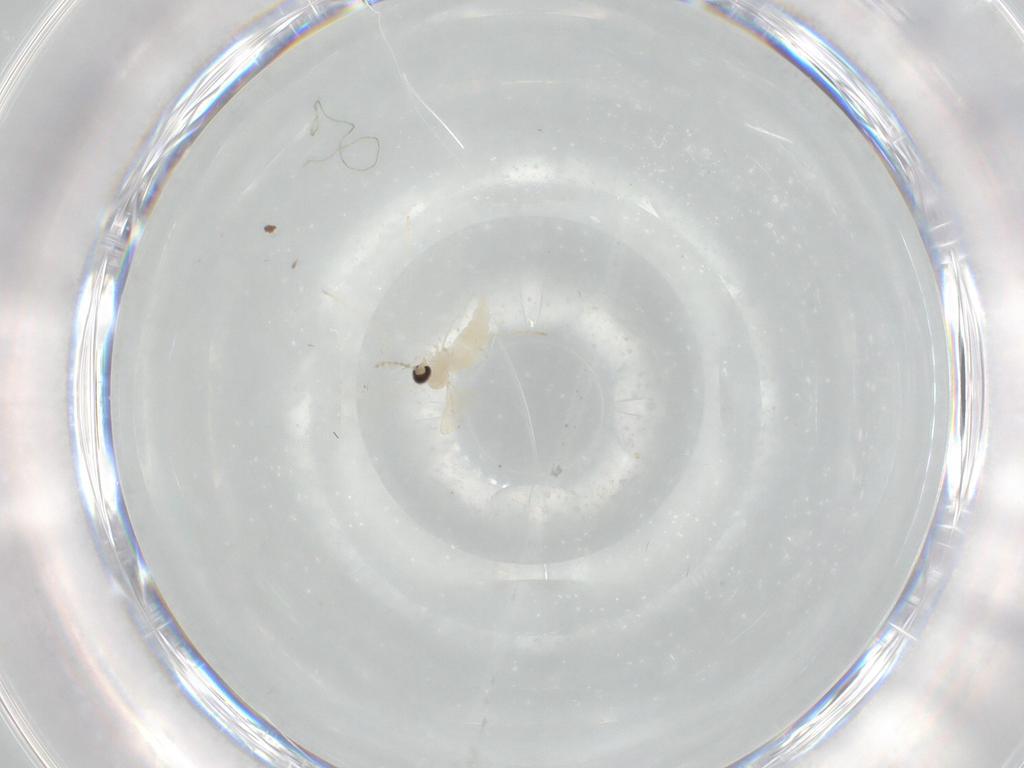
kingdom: Animalia
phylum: Arthropoda
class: Insecta
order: Diptera
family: Cecidomyiidae
